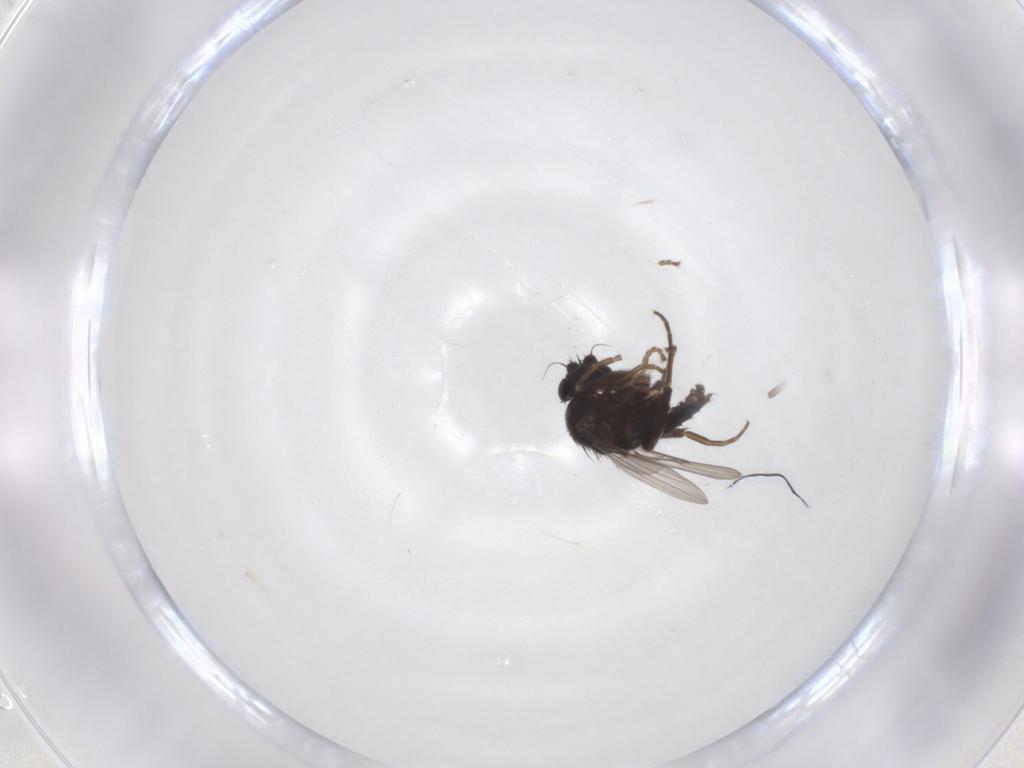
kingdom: Animalia
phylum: Arthropoda
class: Insecta
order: Diptera
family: Phoridae
